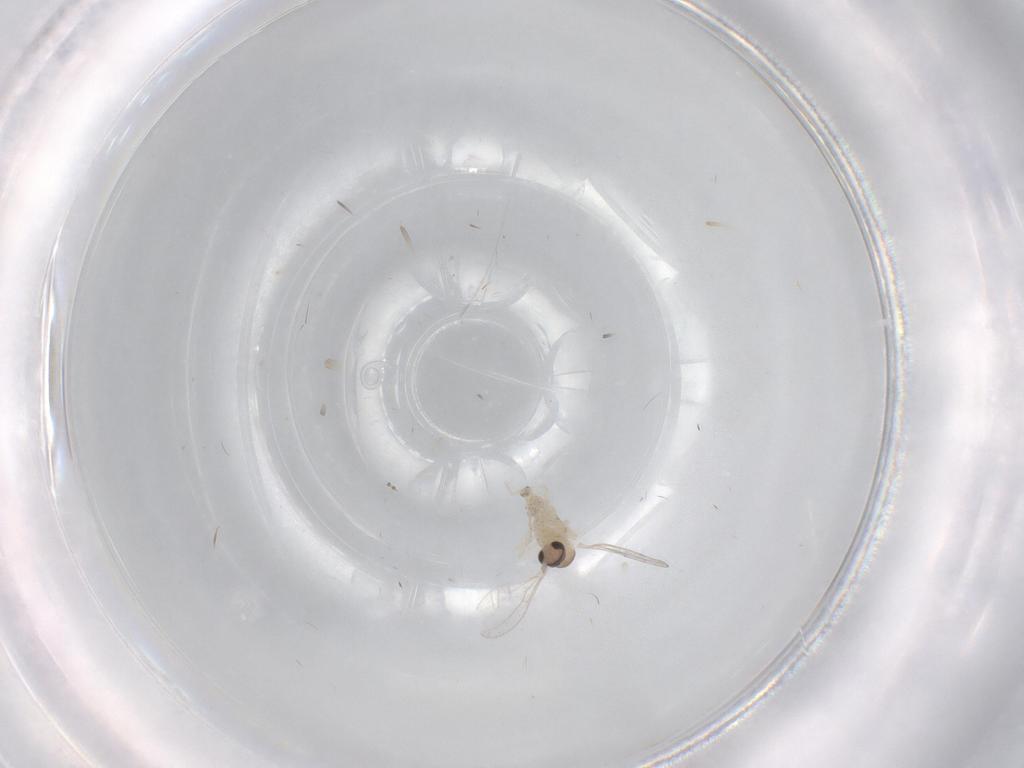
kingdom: Animalia
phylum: Arthropoda
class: Insecta
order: Diptera
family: Cecidomyiidae
